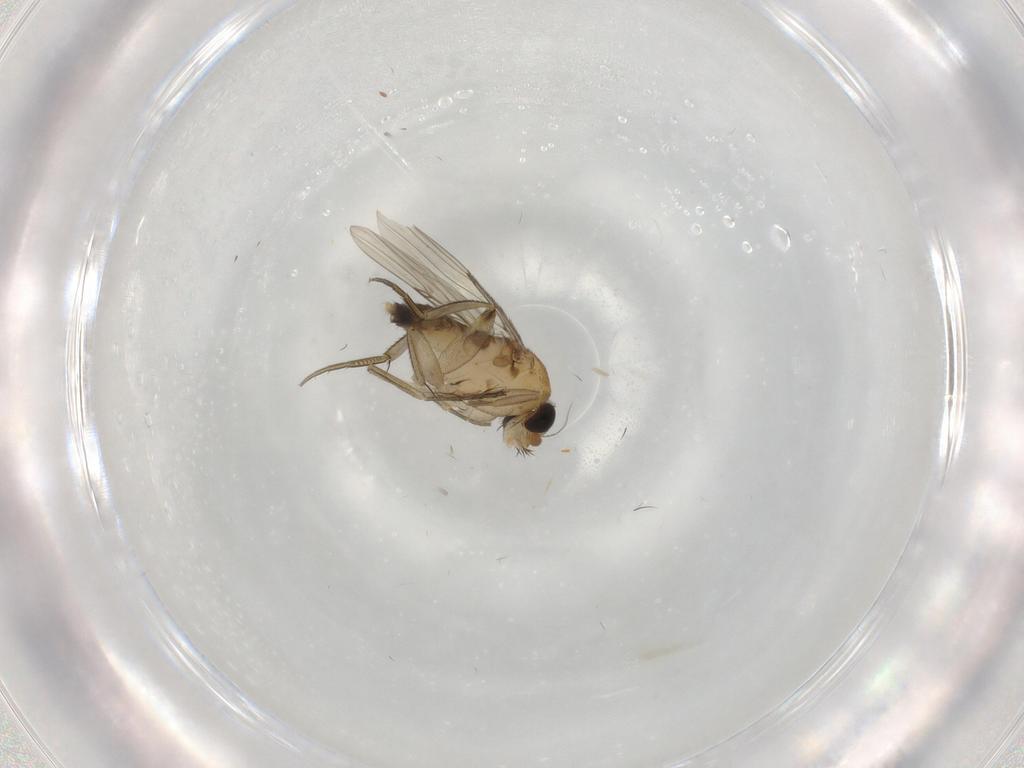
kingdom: Animalia
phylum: Arthropoda
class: Insecta
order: Diptera
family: Phoridae
